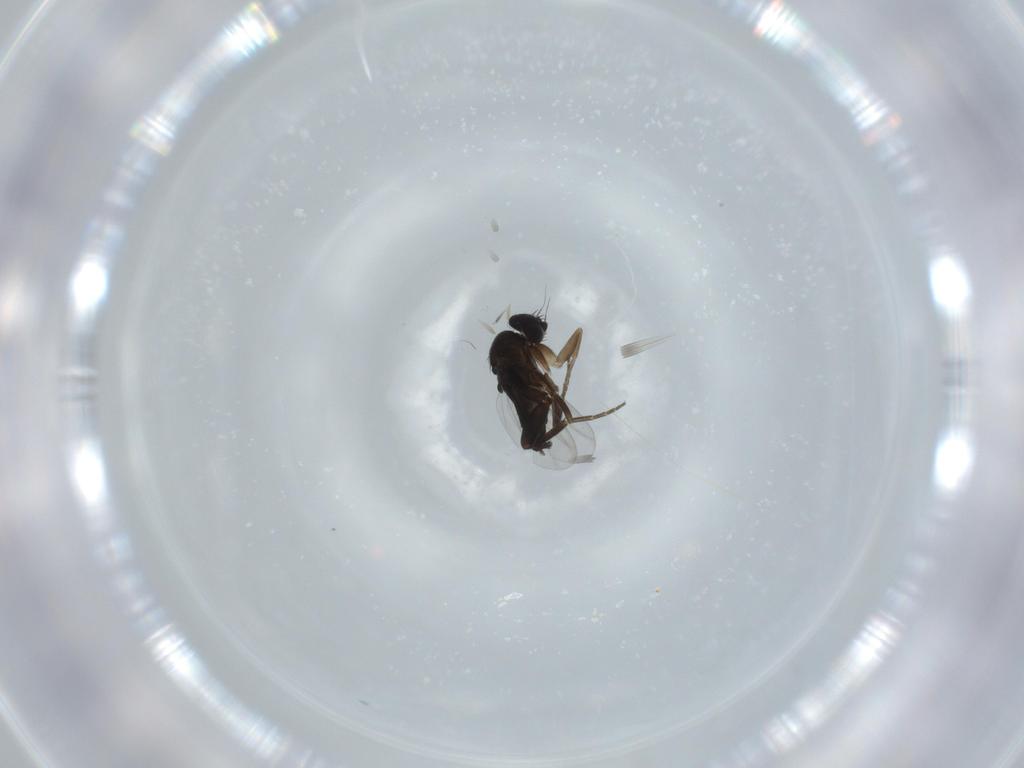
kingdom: Animalia
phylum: Arthropoda
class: Insecta
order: Diptera
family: Phoridae
